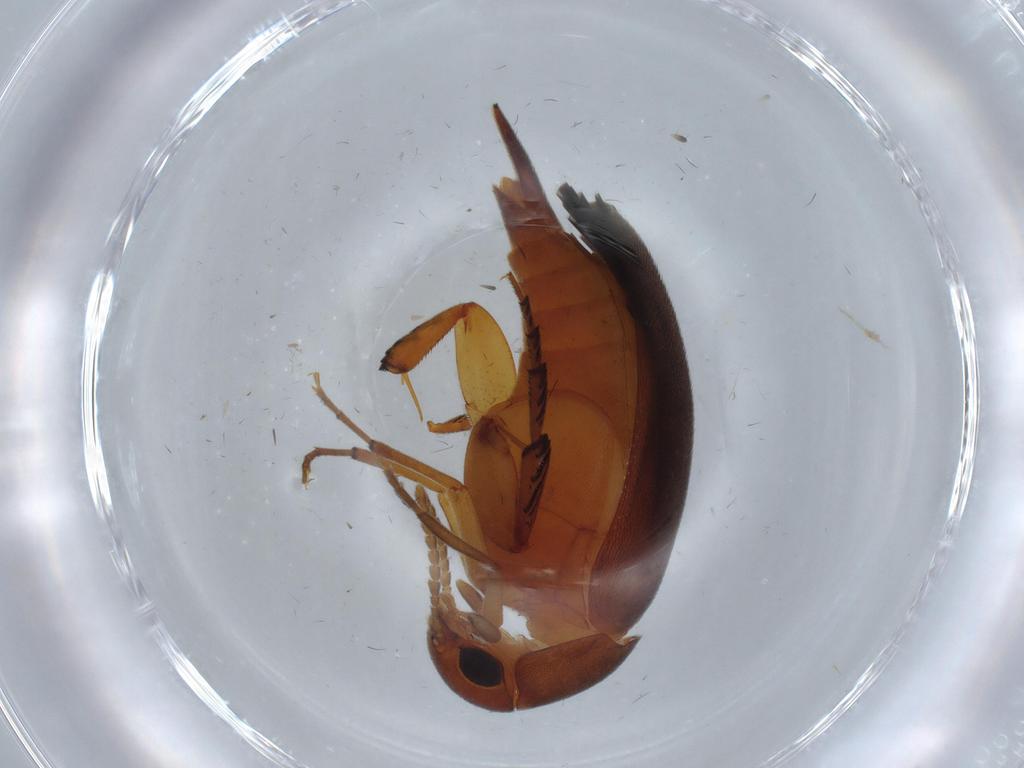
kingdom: Animalia
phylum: Arthropoda
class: Insecta
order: Coleoptera
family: Mordellidae
